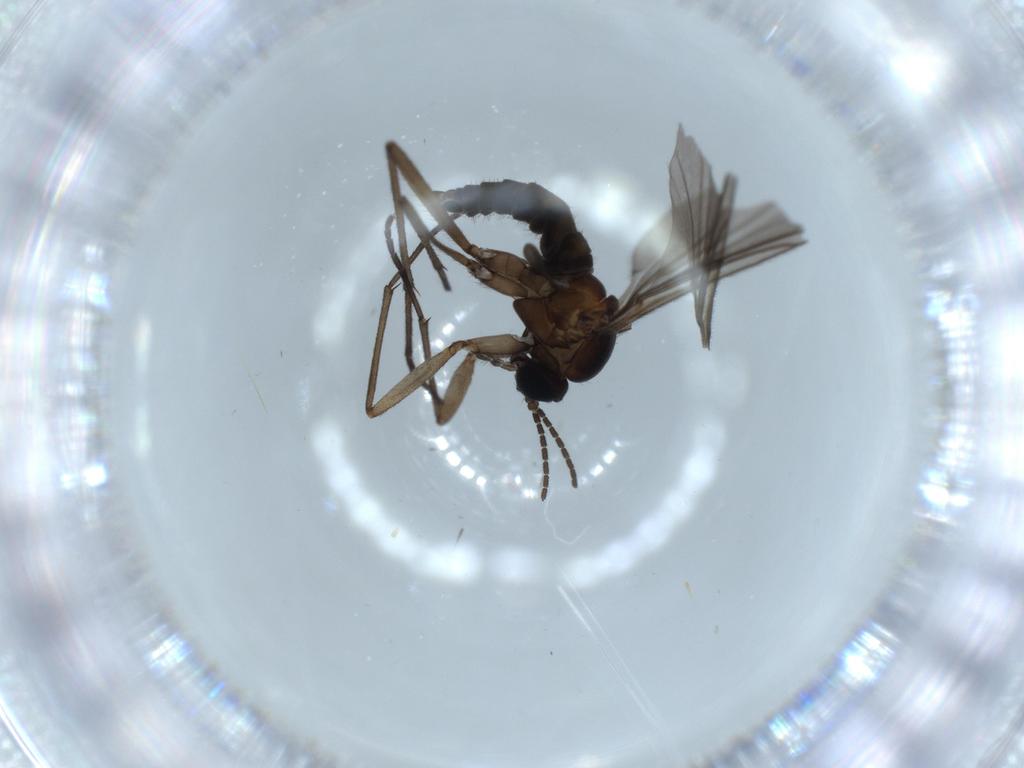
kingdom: Animalia
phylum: Arthropoda
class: Insecta
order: Diptera
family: Sciaridae
